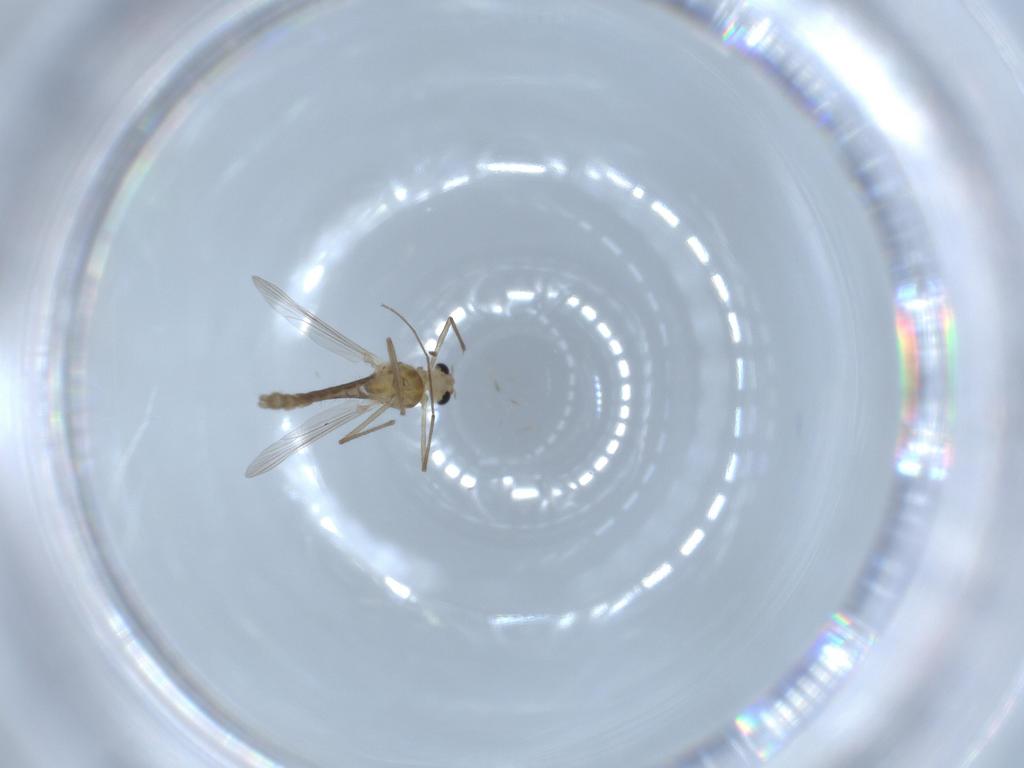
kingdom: Animalia
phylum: Arthropoda
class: Insecta
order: Diptera
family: Chironomidae
